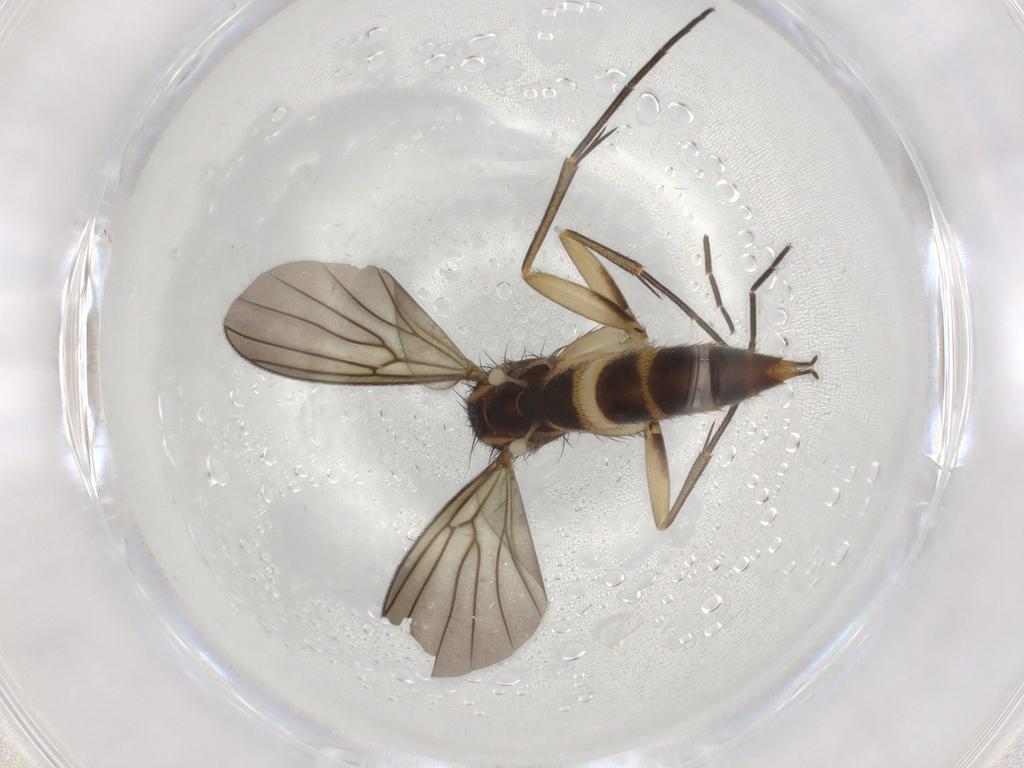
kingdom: Animalia
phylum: Arthropoda
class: Insecta
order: Diptera
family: Mycetophilidae
